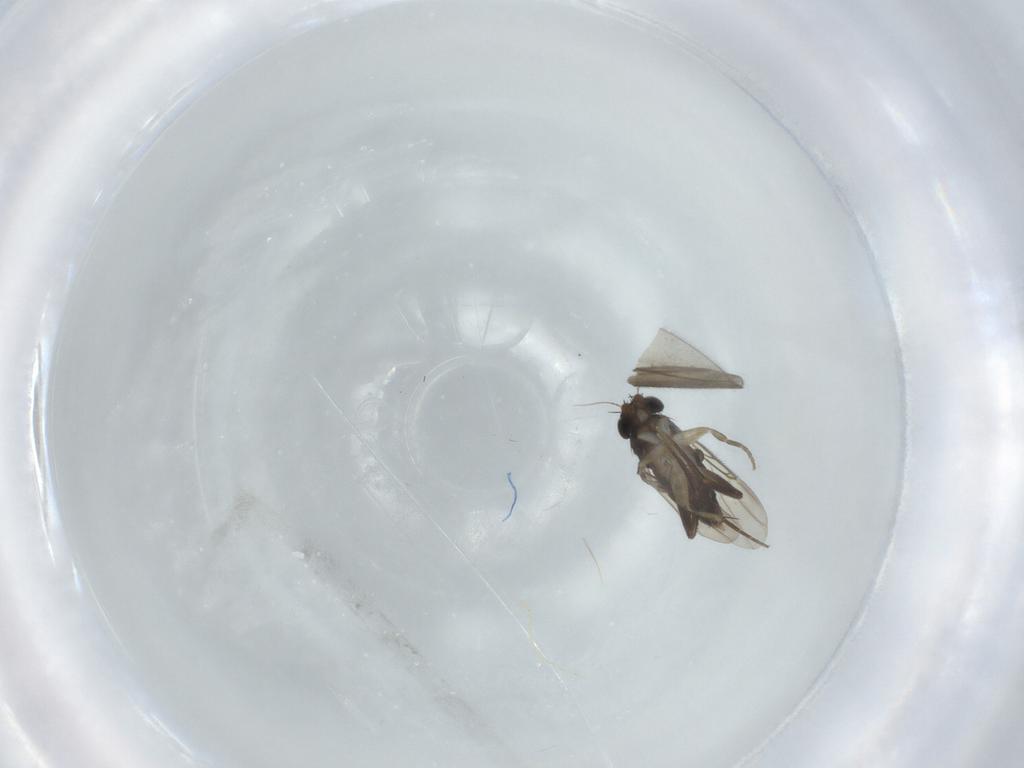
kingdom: Animalia
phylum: Arthropoda
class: Insecta
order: Diptera
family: Phoridae
